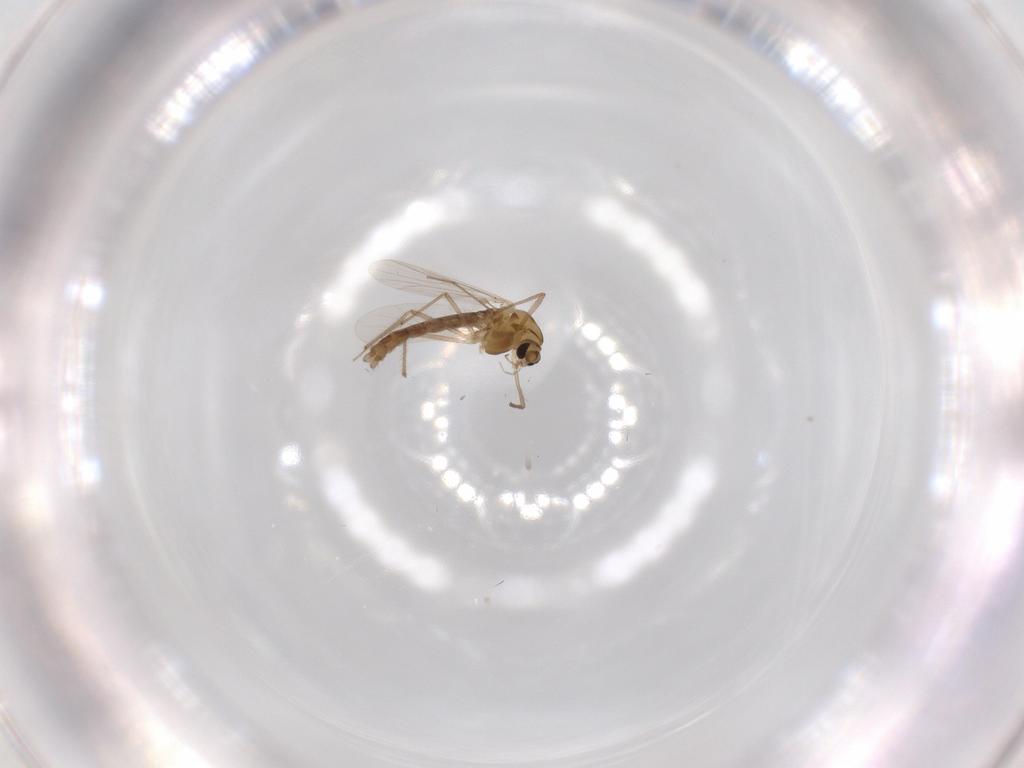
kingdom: Animalia
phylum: Arthropoda
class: Insecta
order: Diptera
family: Chironomidae
